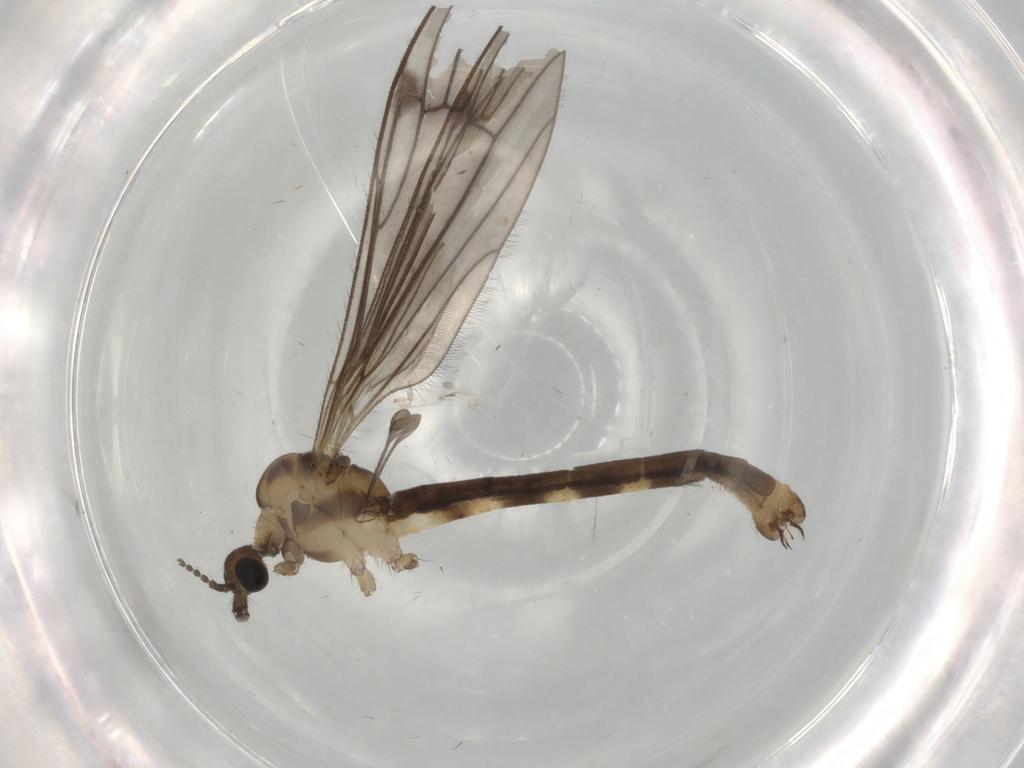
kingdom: Animalia
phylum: Arthropoda
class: Insecta
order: Diptera
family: Limoniidae
